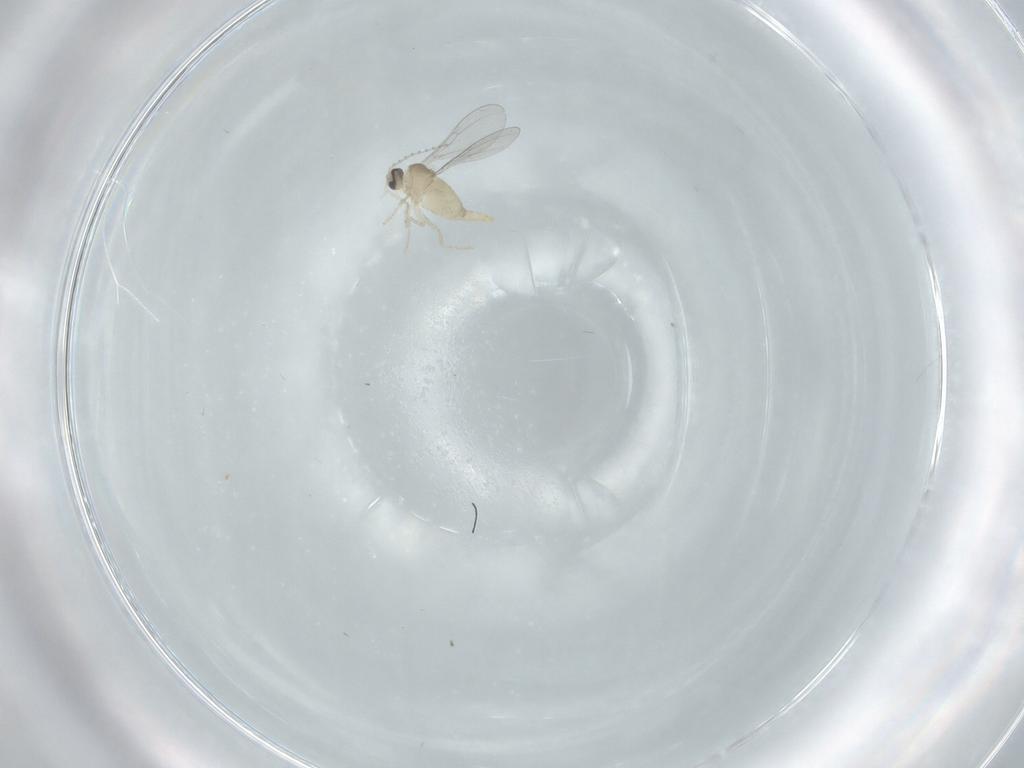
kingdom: Animalia
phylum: Arthropoda
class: Insecta
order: Diptera
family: Cecidomyiidae
